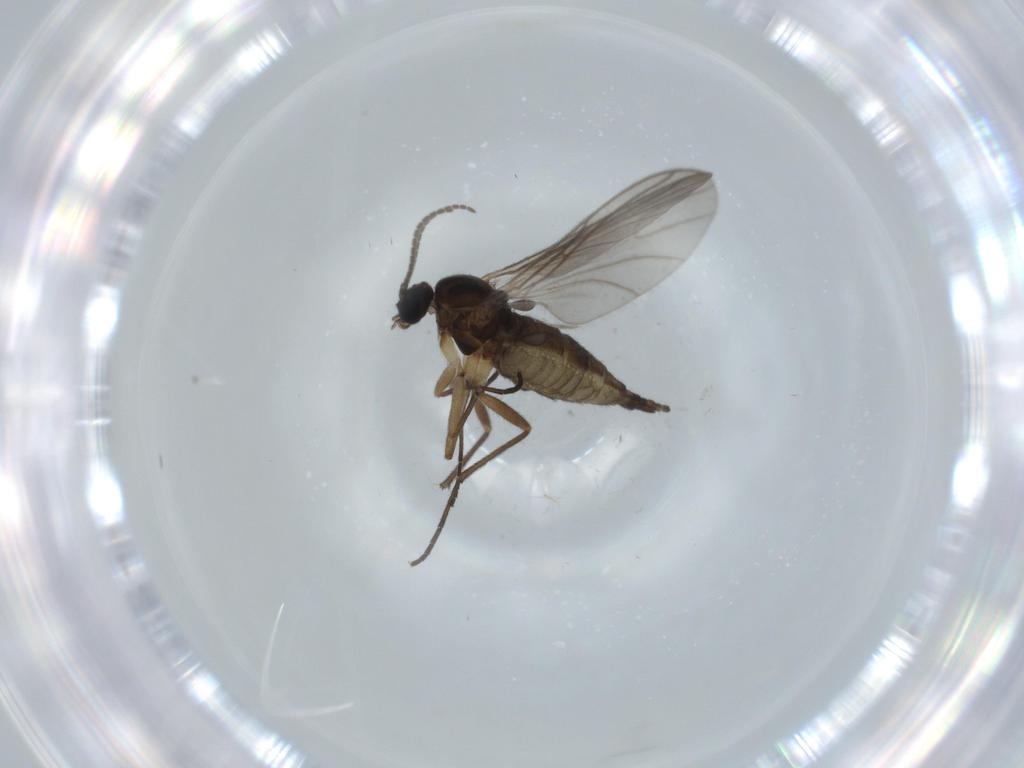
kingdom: Animalia
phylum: Arthropoda
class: Insecta
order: Diptera
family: Sciaridae
